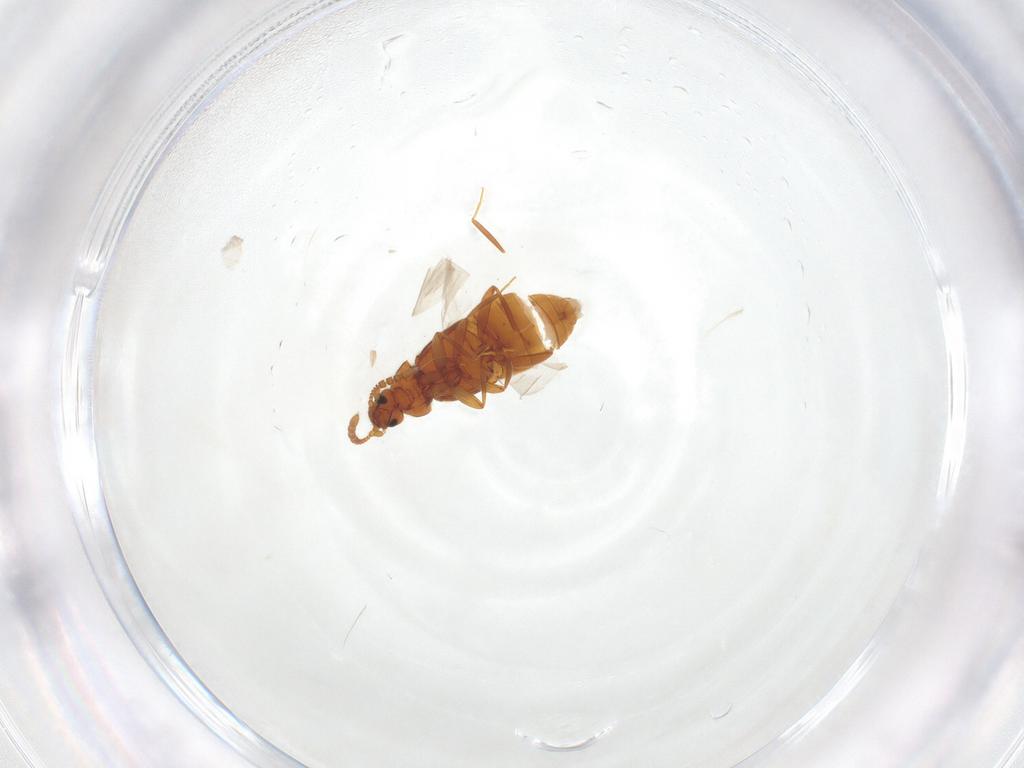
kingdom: Animalia
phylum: Arthropoda
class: Insecta
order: Coleoptera
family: Staphylinidae
